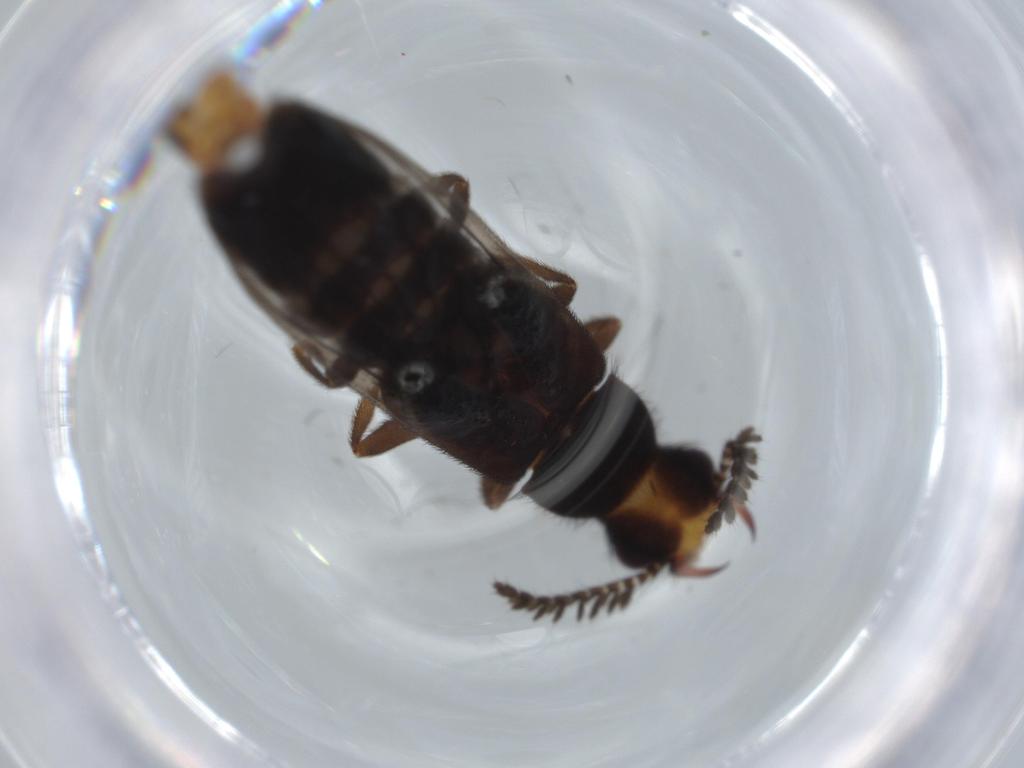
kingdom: Animalia
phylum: Arthropoda
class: Insecta
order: Coleoptera
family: Phengodidae
